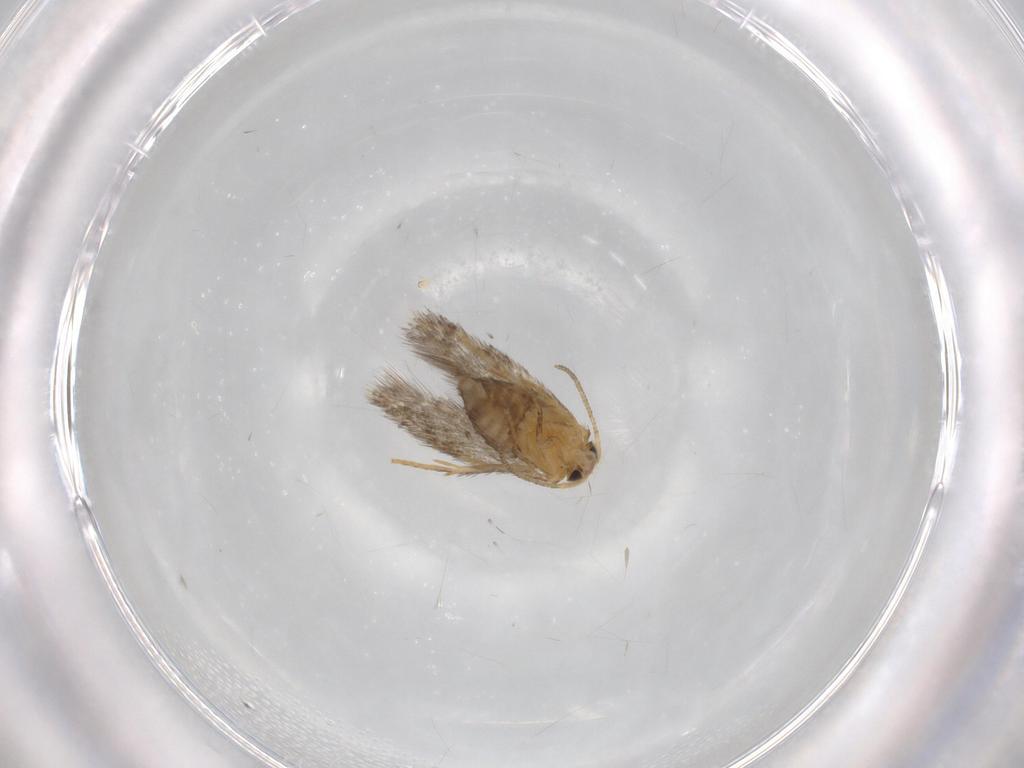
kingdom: Animalia
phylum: Arthropoda
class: Insecta
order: Lepidoptera
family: Nepticulidae
